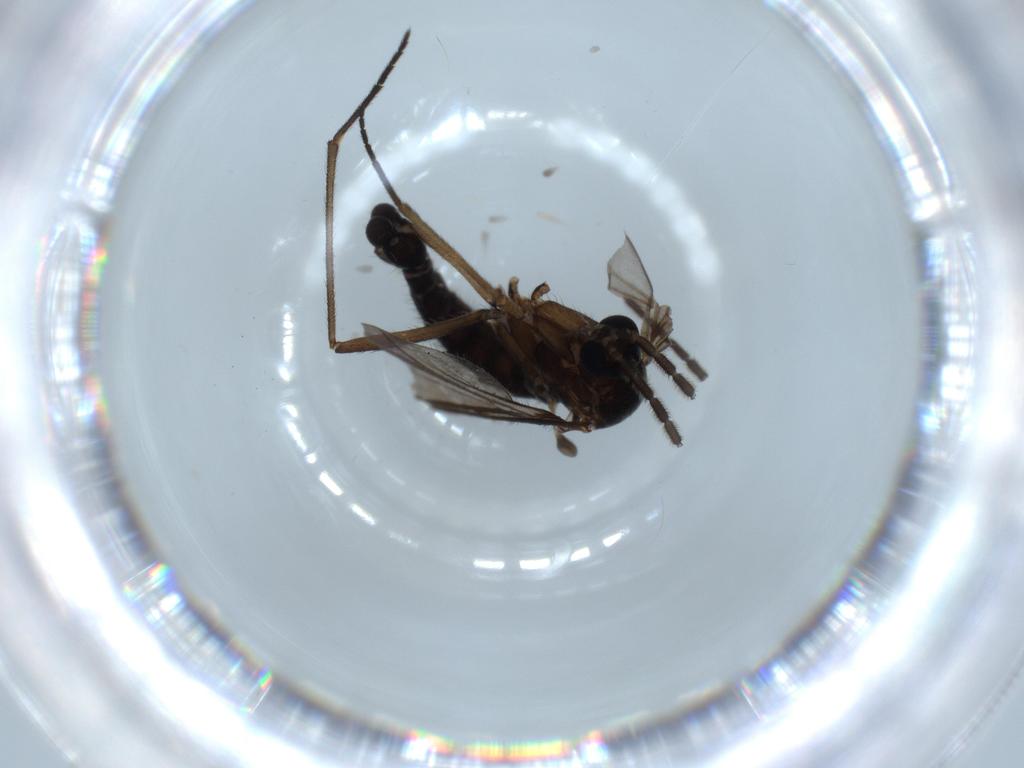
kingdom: Animalia
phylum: Arthropoda
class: Insecta
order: Diptera
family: Sciaridae
